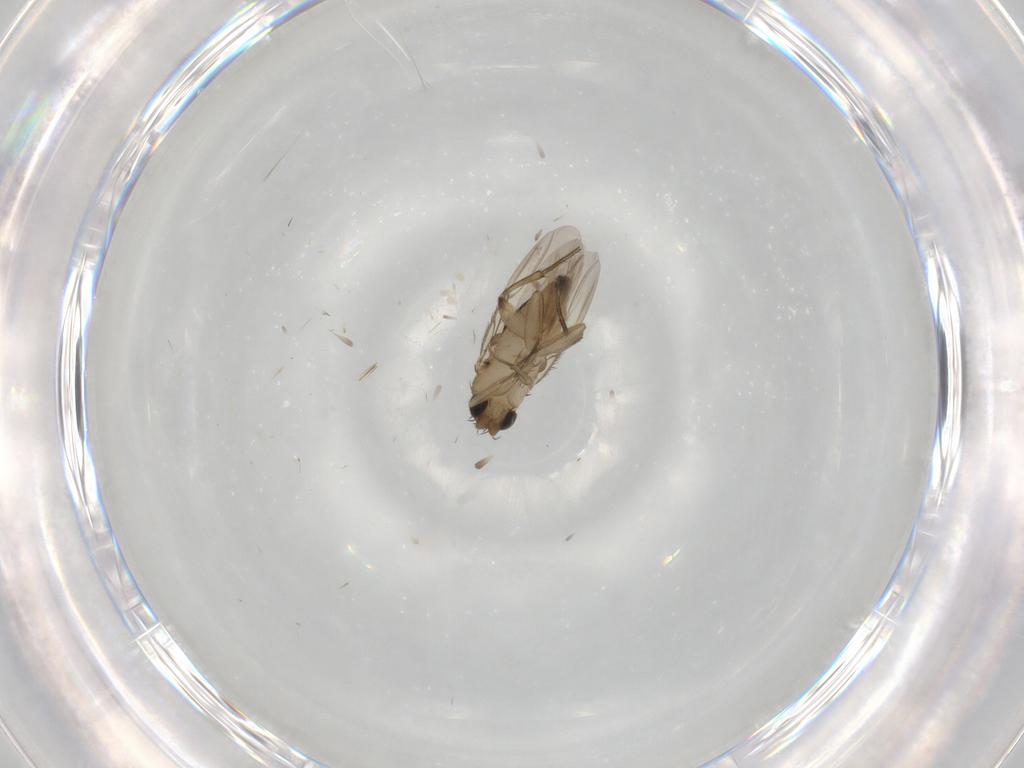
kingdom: Animalia
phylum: Arthropoda
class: Insecta
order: Diptera
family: Phoridae
